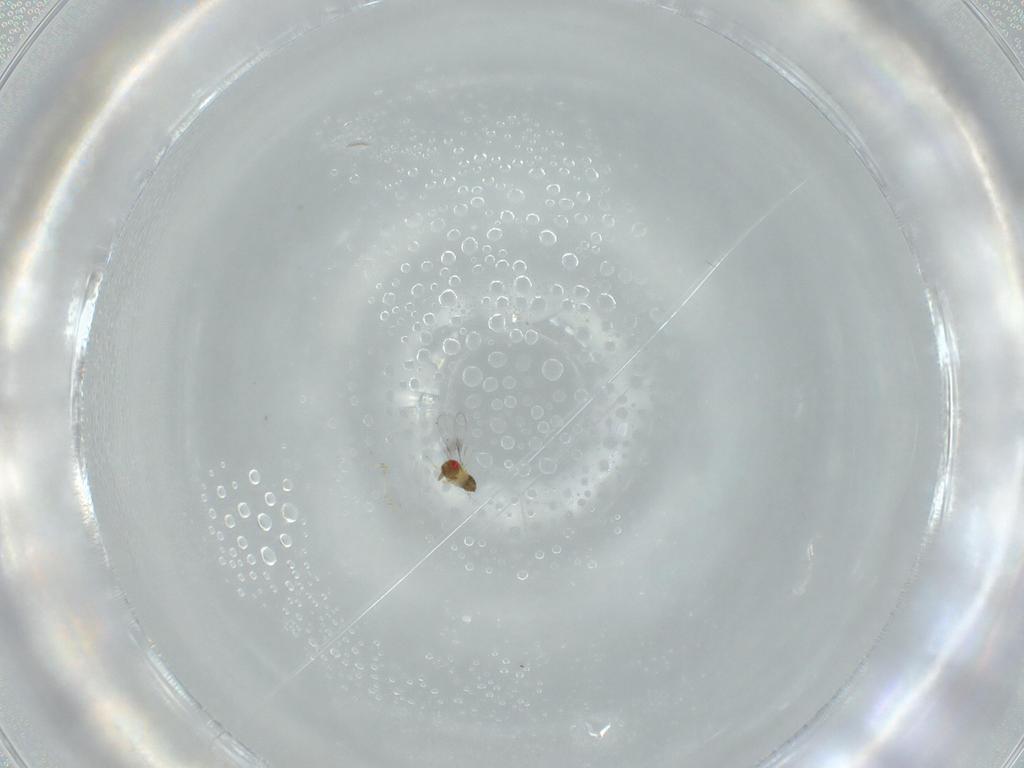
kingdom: Animalia
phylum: Arthropoda
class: Insecta
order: Hymenoptera
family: Trichogrammatidae
